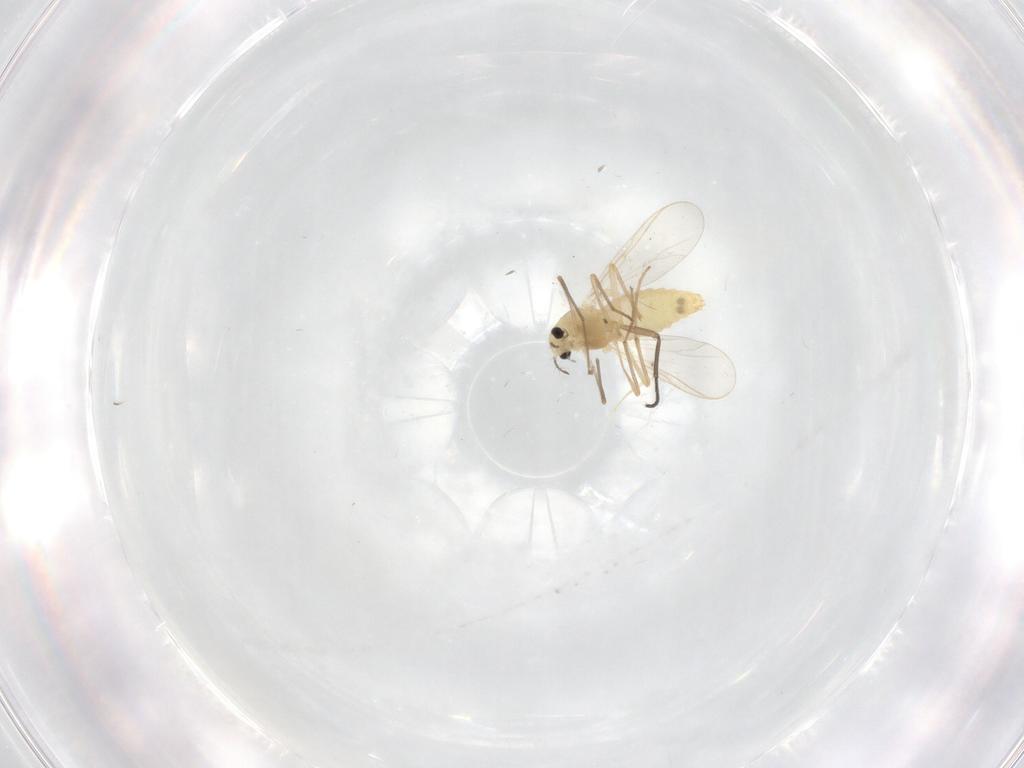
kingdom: Animalia
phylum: Arthropoda
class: Insecta
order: Diptera
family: Chironomidae
